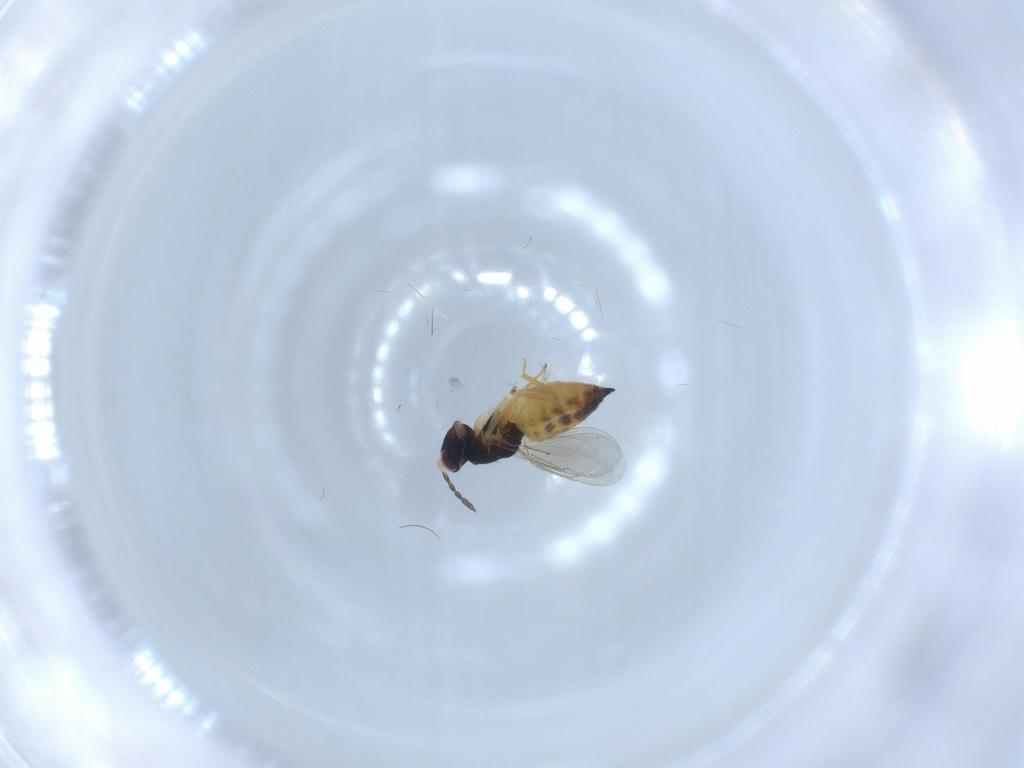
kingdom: Animalia
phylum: Arthropoda
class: Insecta
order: Hymenoptera
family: Eulophidae
